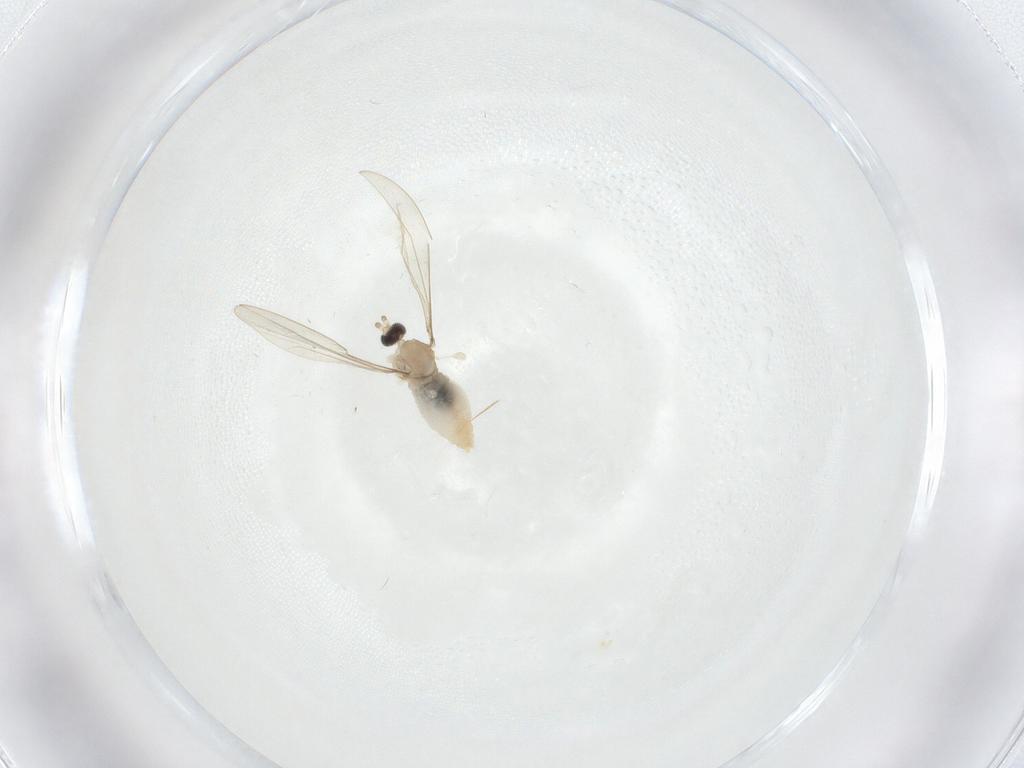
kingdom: Animalia
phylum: Arthropoda
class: Insecta
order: Diptera
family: Cecidomyiidae
